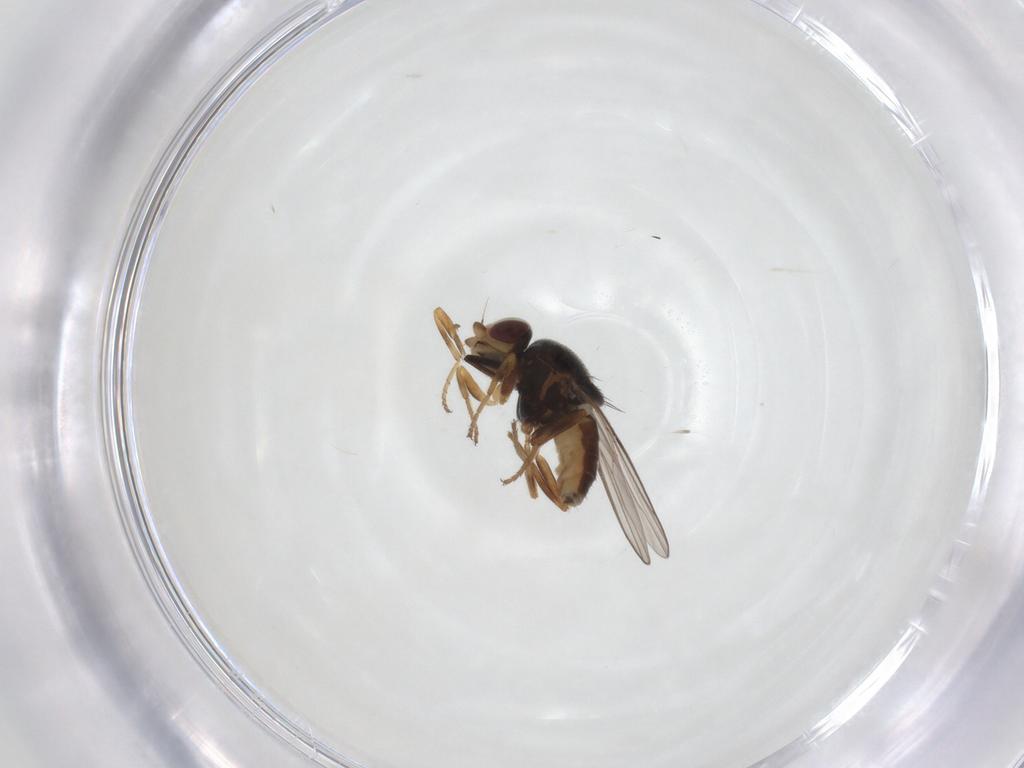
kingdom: Animalia
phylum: Arthropoda
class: Insecta
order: Diptera
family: Chloropidae
